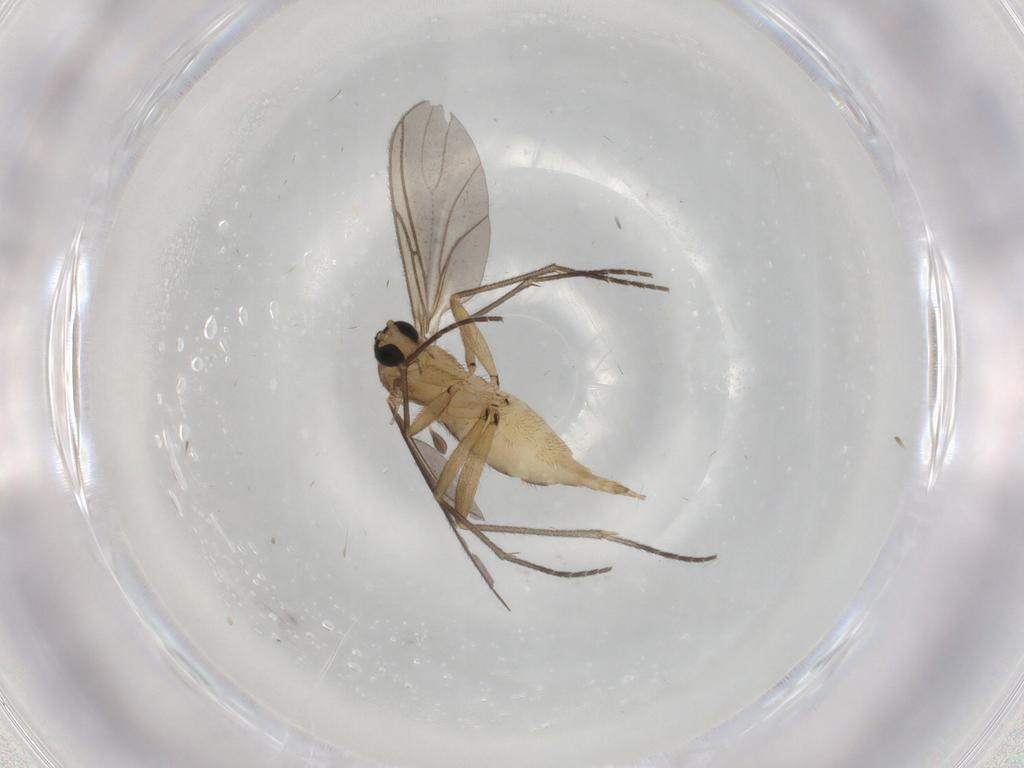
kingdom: Animalia
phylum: Arthropoda
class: Insecta
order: Diptera
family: Sciaridae
